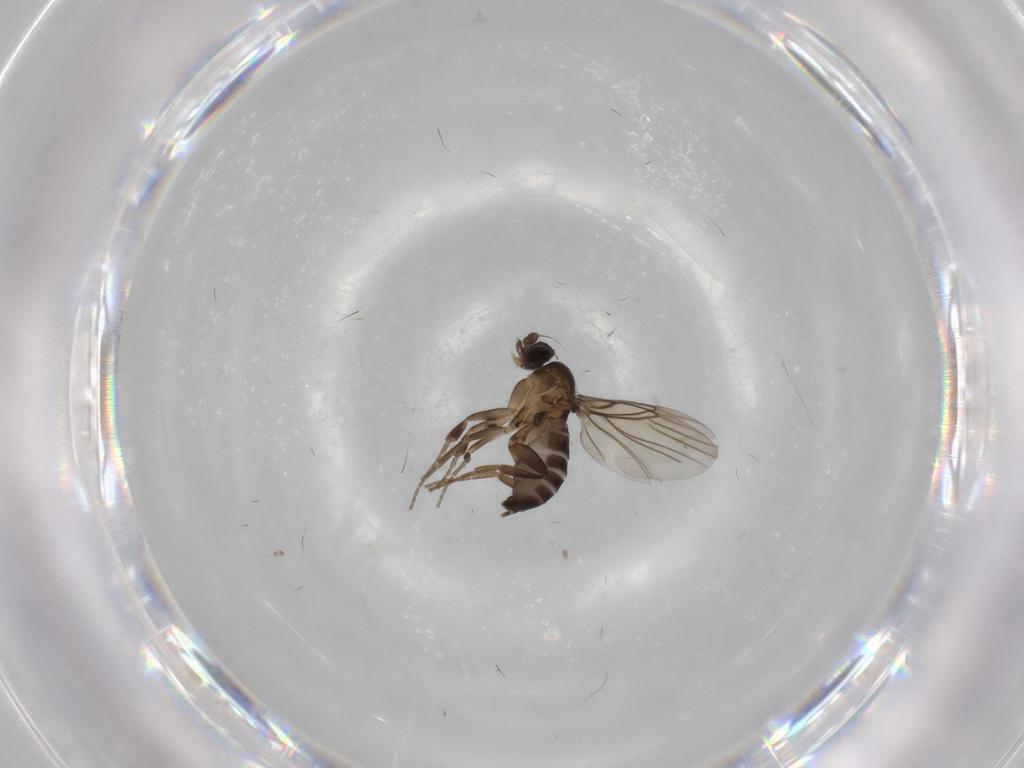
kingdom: Animalia
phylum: Arthropoda
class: Insecta
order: Diptera
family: Phoridae
